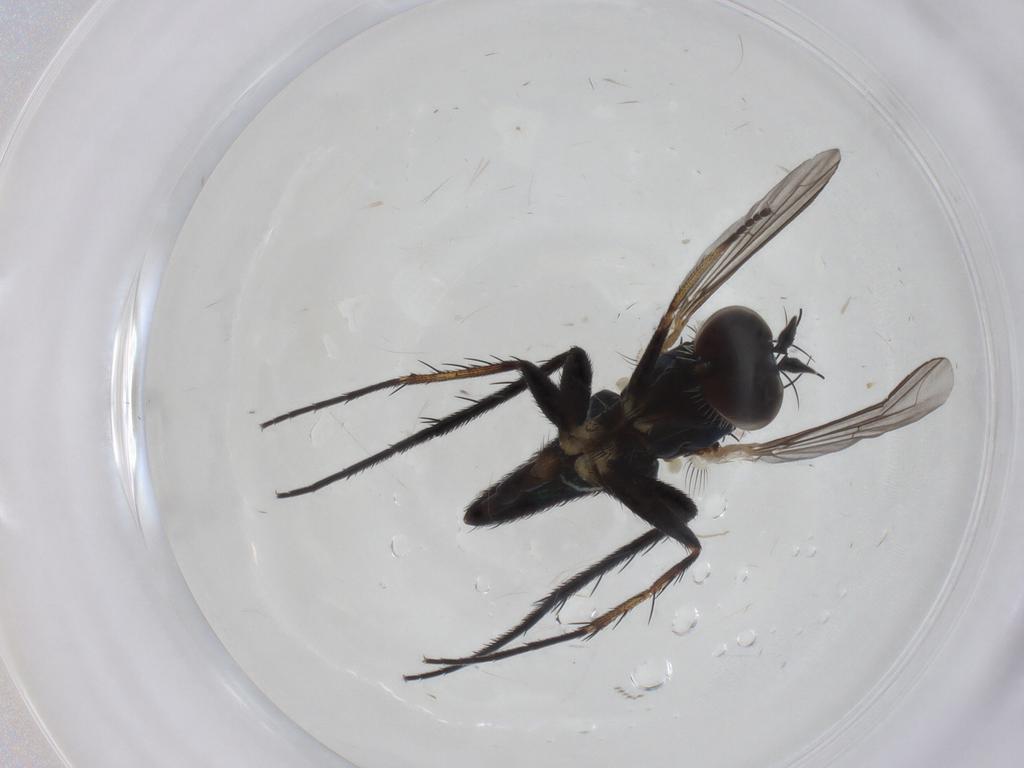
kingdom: Animalia
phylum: Arthropoda
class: Insecta
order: Diptera
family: Dolichopodidae
